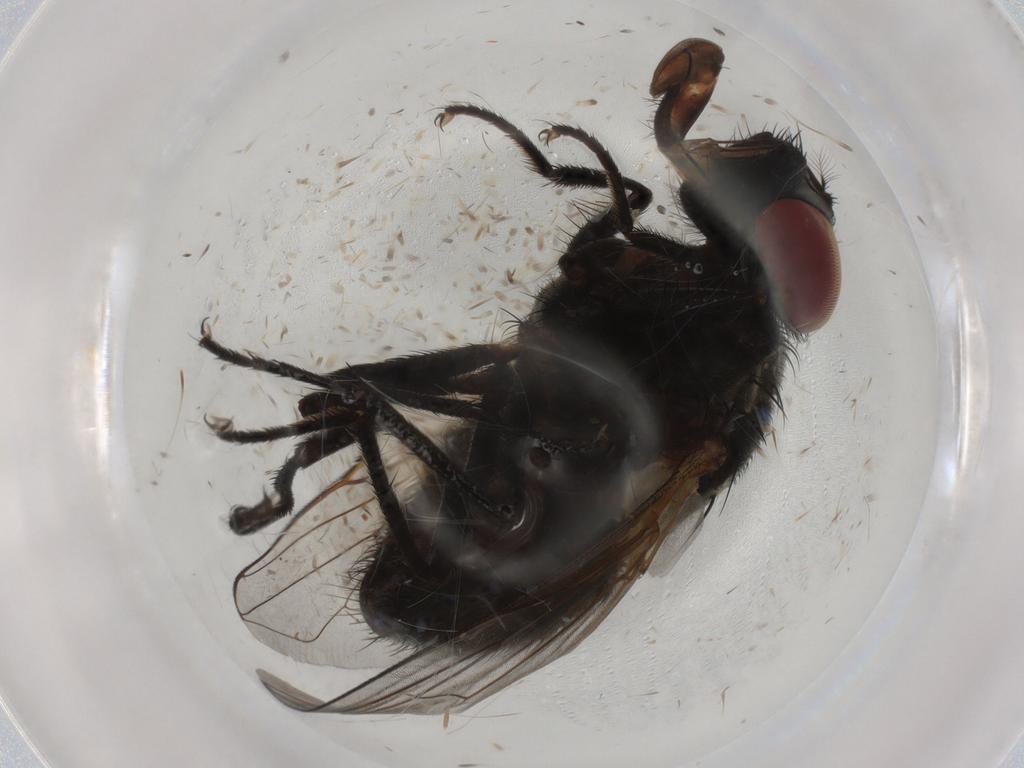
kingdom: Animalia
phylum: Arthropoda
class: Insecta
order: Diptera
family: Muscidae
